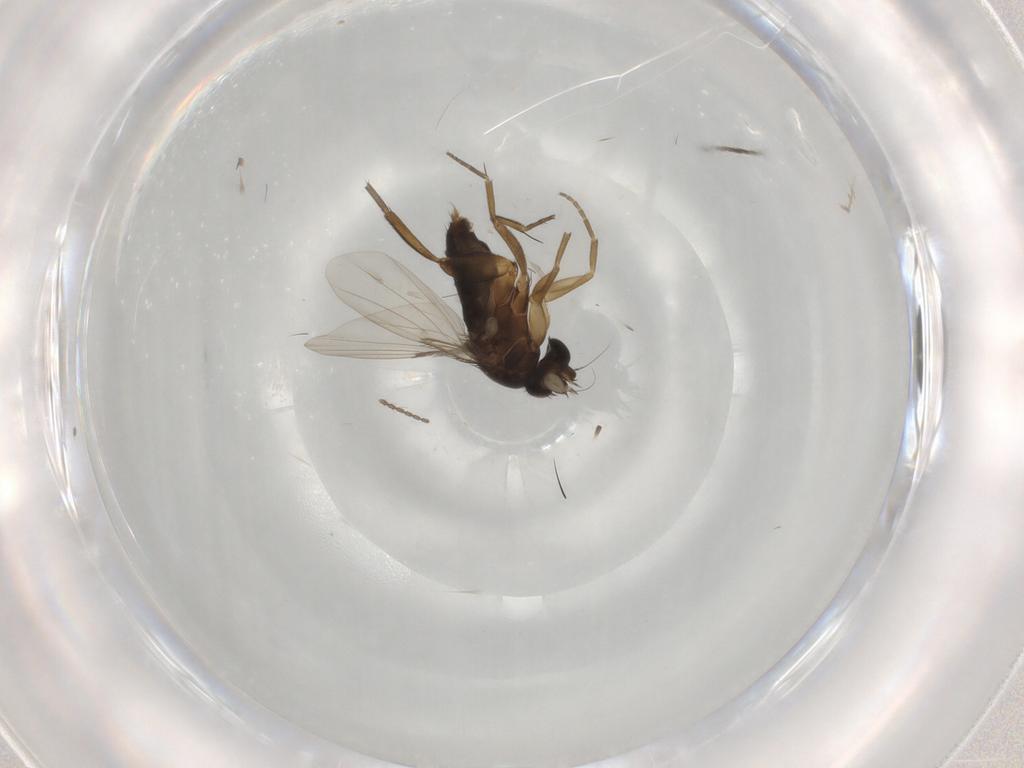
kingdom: Animalia
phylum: Arthropoda
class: Insecta
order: Diptera
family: Phoridae
